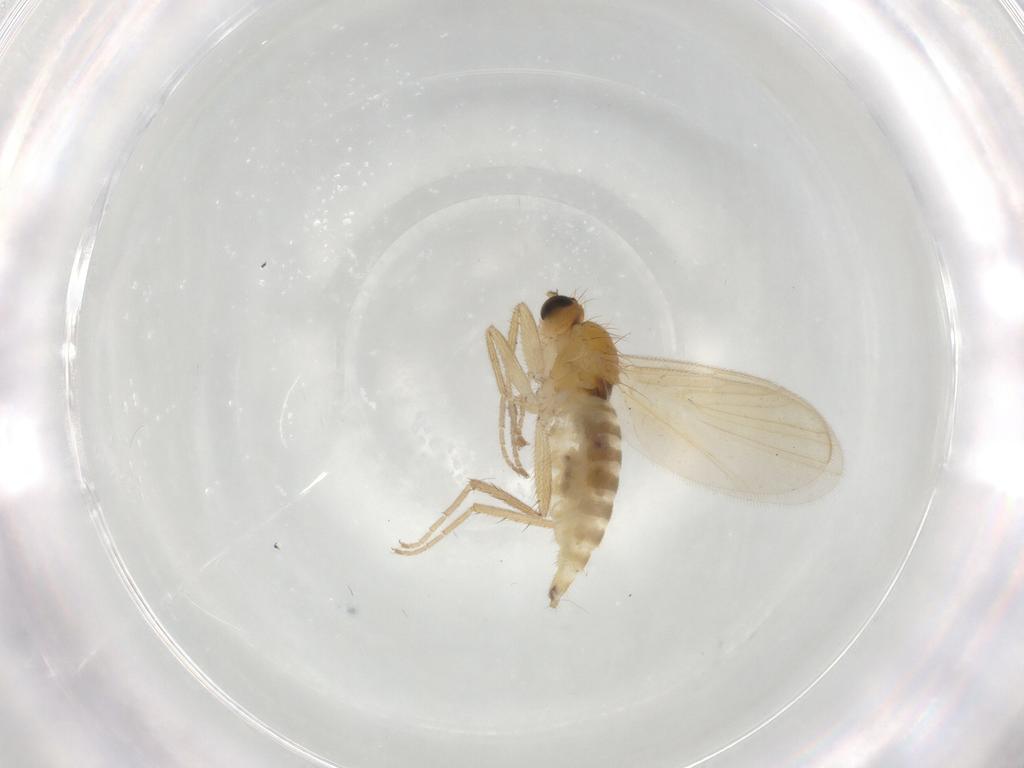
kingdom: Animalia
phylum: Arthropoda
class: Insecta
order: Diptera
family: Hybotidae
